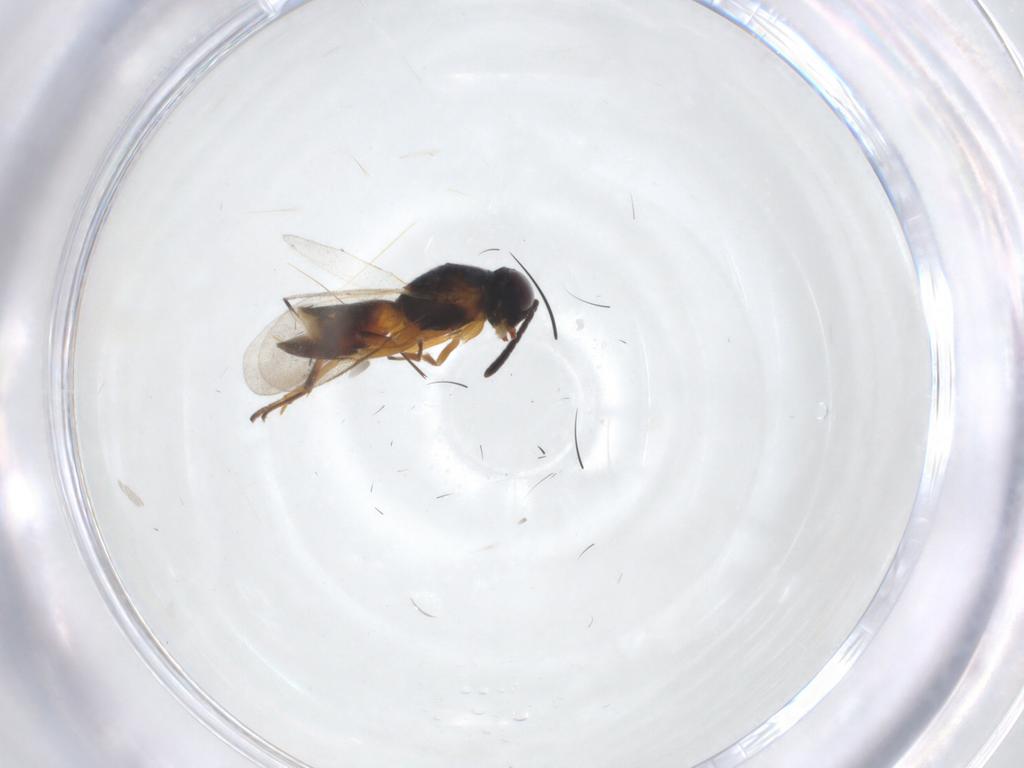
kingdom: Animalia
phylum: Arthropoda
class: Insecta
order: Hymenoptera
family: Encyrtidae
